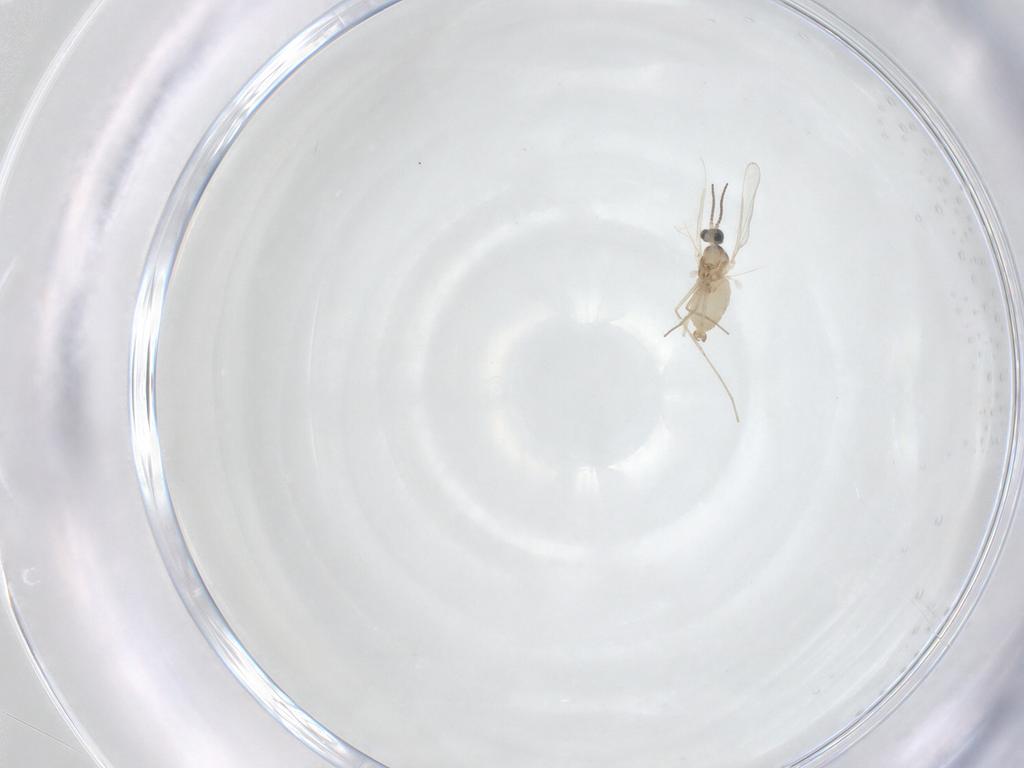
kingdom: Animalia
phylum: Arthropoda
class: Insecta
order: Diptera
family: Cecidomyiidae
